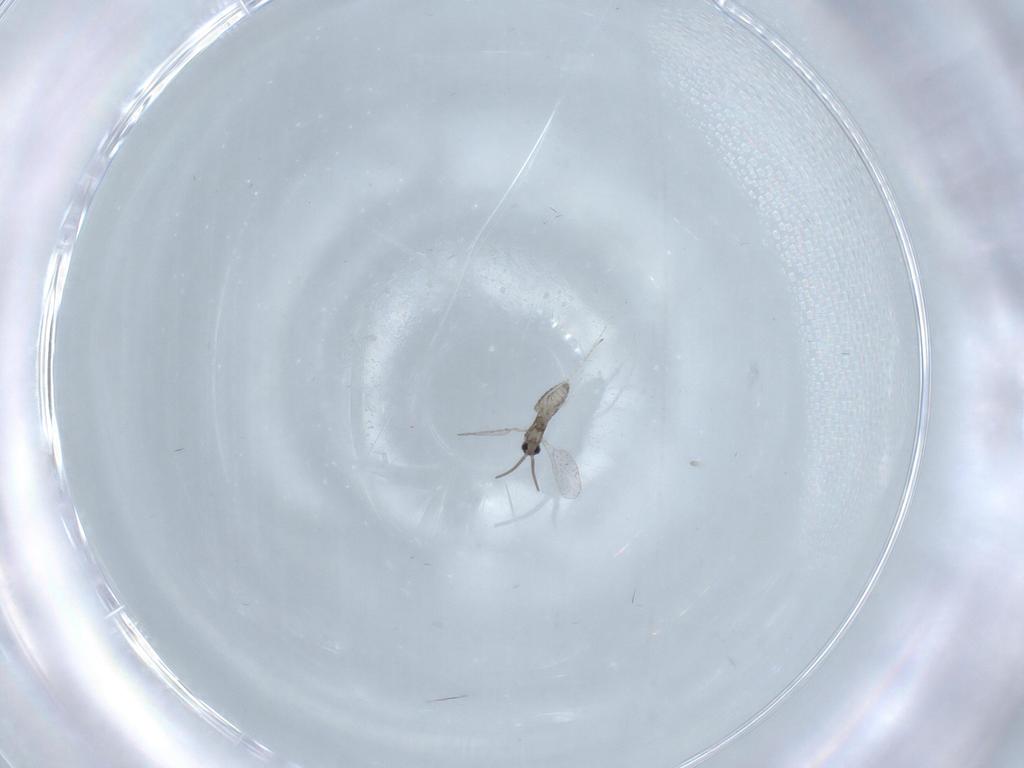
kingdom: Animalia
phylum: Arthropoda
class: Insecta
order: Diptera
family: Cecidomyiidae
